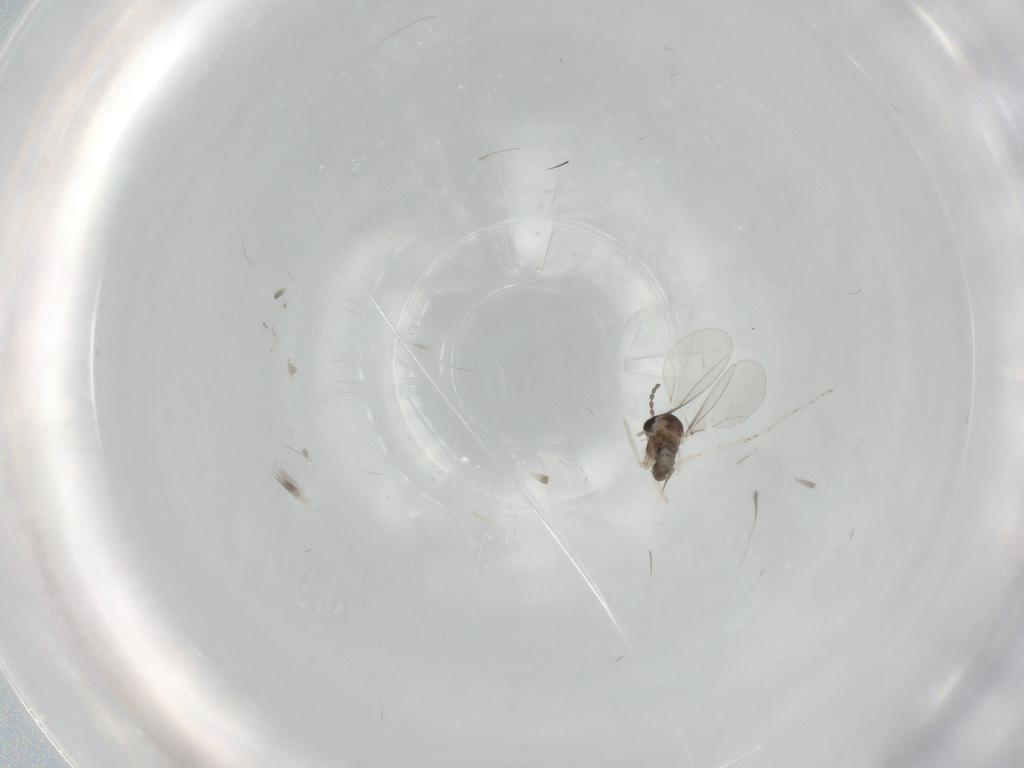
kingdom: Animalia
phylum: Arthropoda
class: Insecta
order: Diptera
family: Cecidomyiidae
